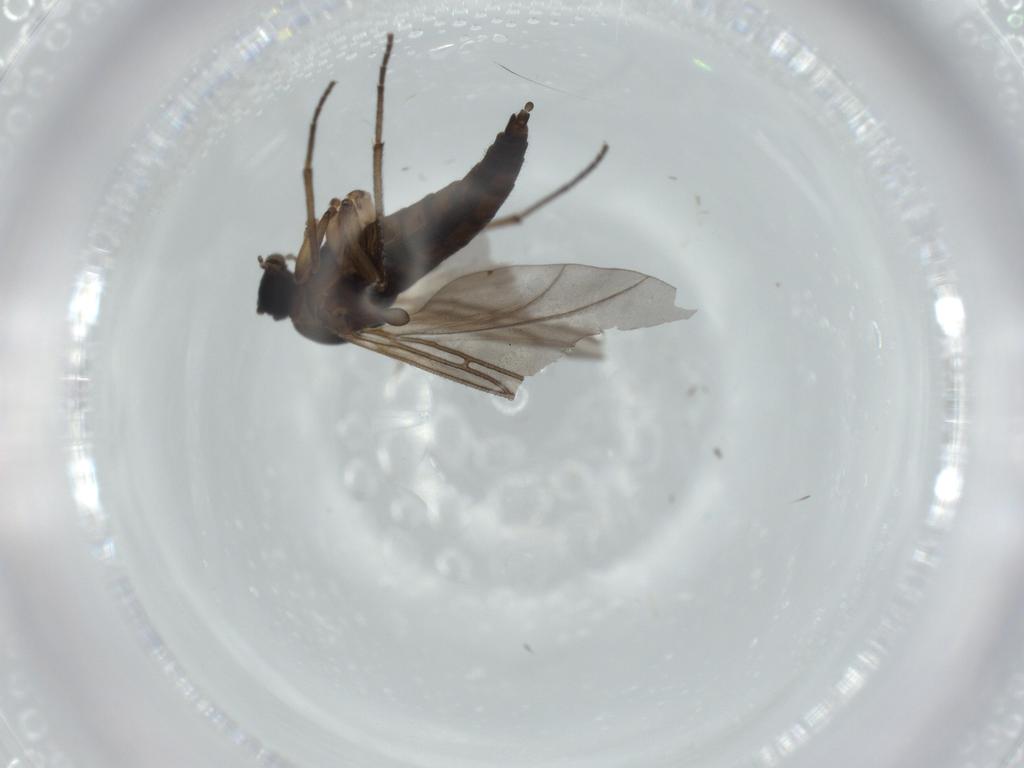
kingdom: Animalia
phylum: Arthropoda
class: Insecta
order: Diptera
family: Sciaridae
